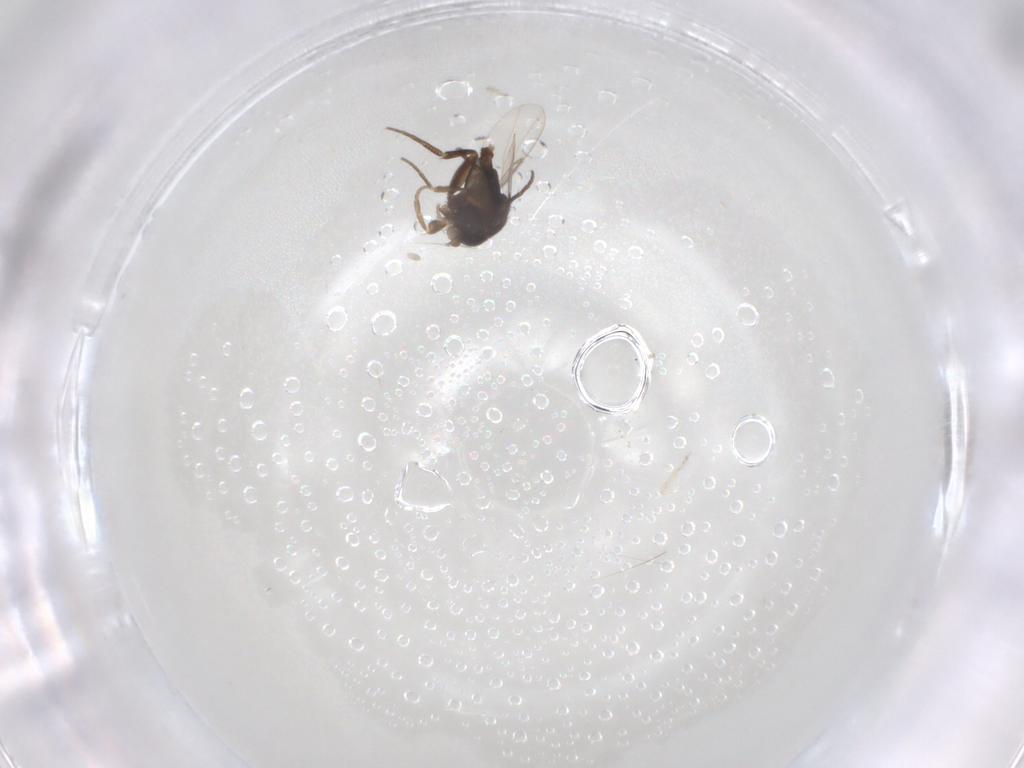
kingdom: Animalia
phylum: Arthropoda
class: Insecta
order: Diptera
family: Phoridae
